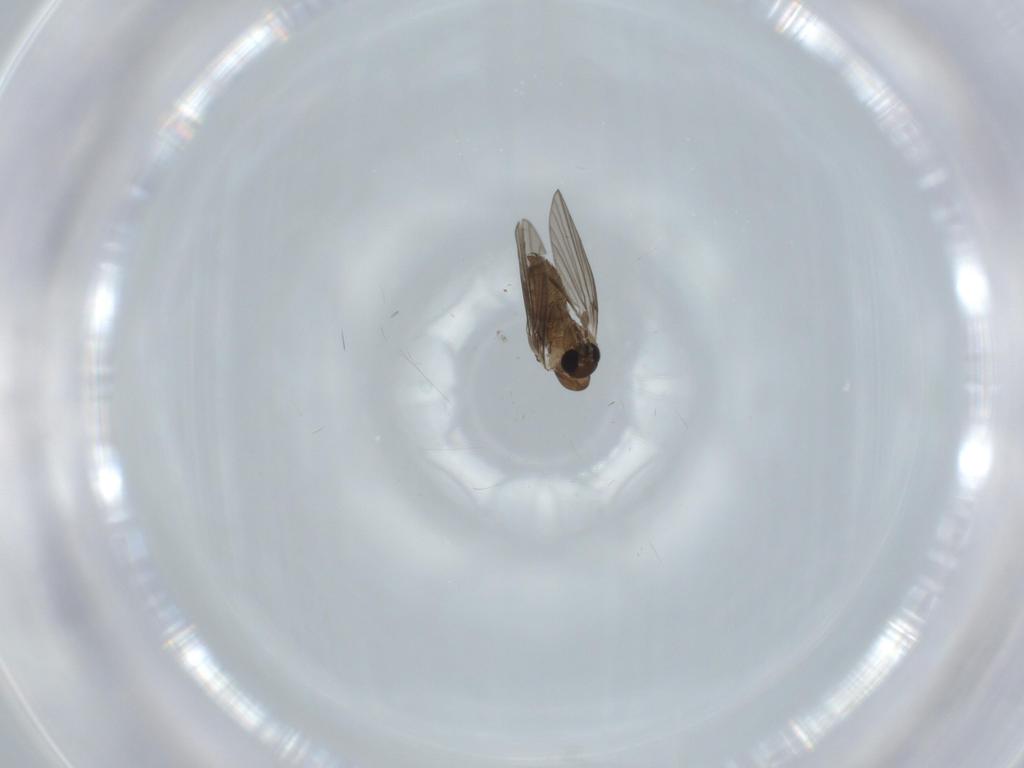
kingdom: Animalia
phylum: Arthropoda
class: Insecta
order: Diptera
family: Psychodidae
